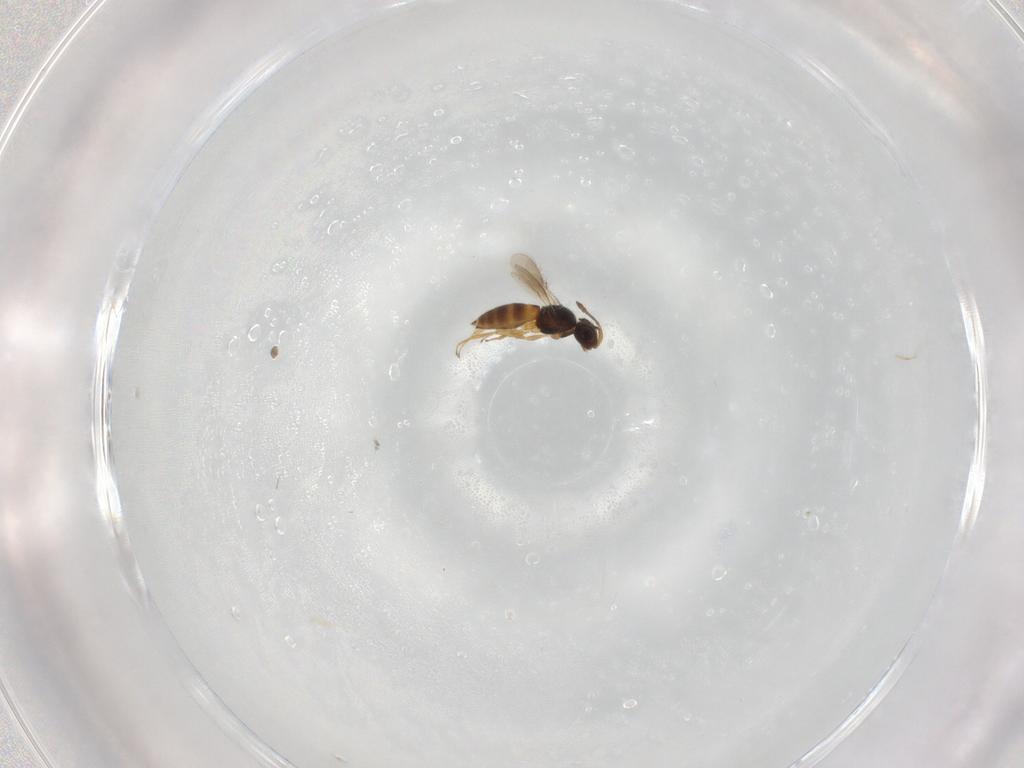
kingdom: Animalia
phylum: Arthropoda
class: Insecta
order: Hymenoptera
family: Scelionidae
